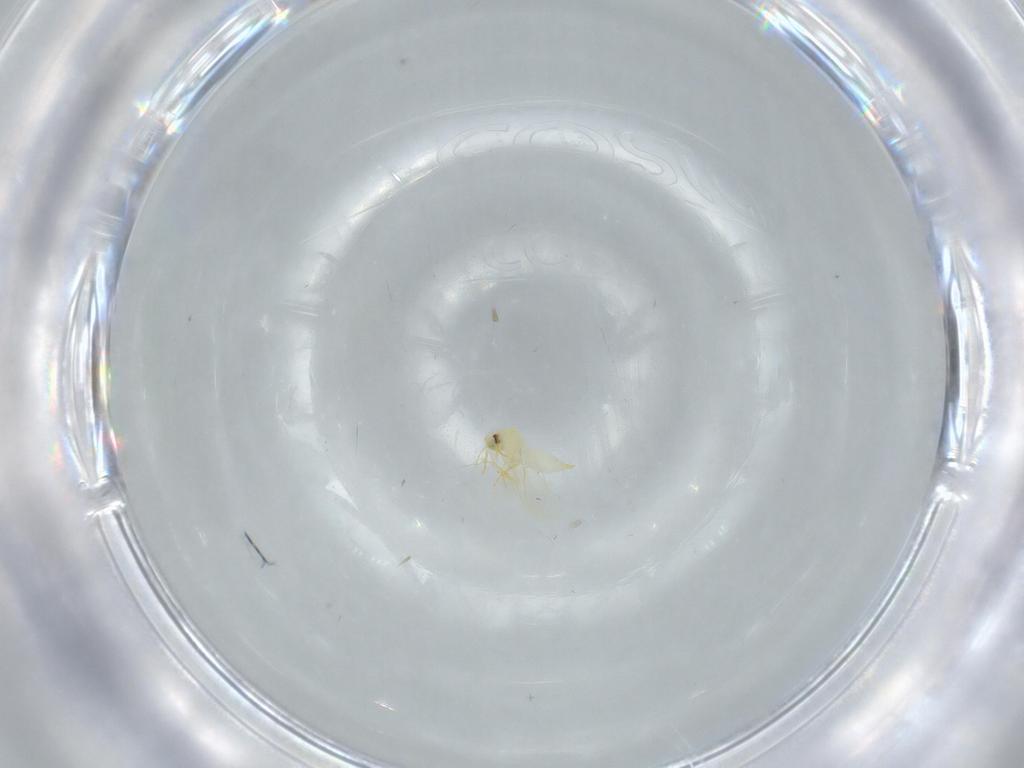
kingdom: Animalia
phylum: Arthropoda
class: Insecta
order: Hemiptera
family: Aleyrodidae
